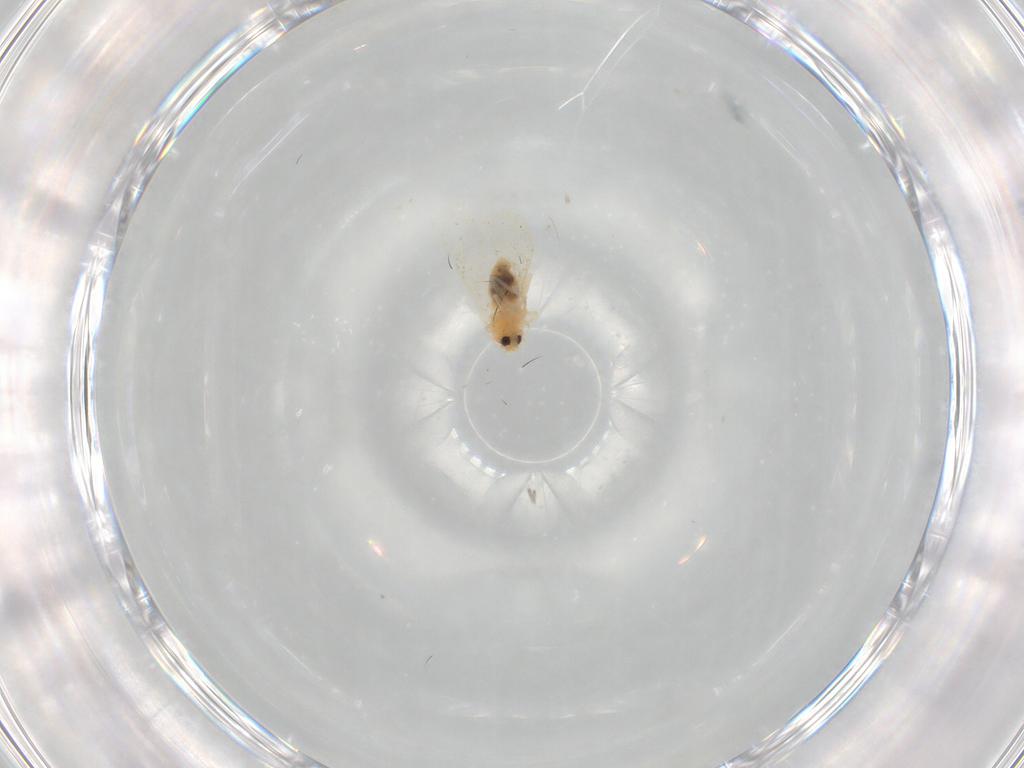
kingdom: Animalia
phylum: Arthropoda
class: Insecta
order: Hemiptera
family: Aleyrodidae
